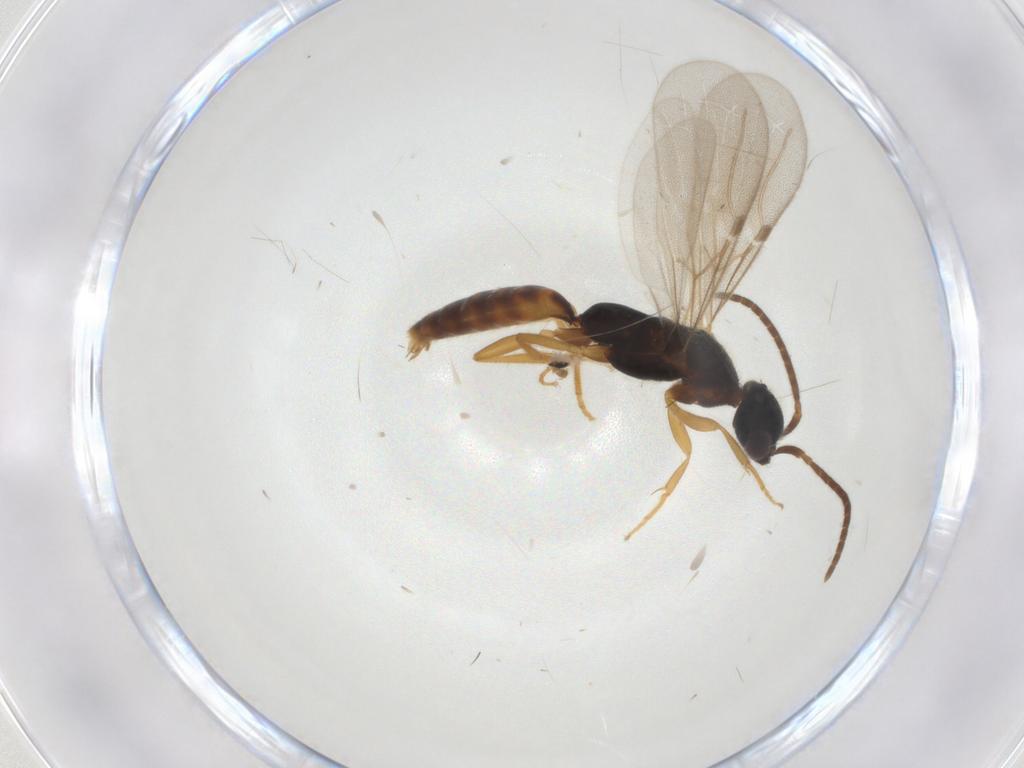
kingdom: Animalia
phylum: Arthropoda
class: Insecta
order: Hymenoptera
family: Bethylidae
